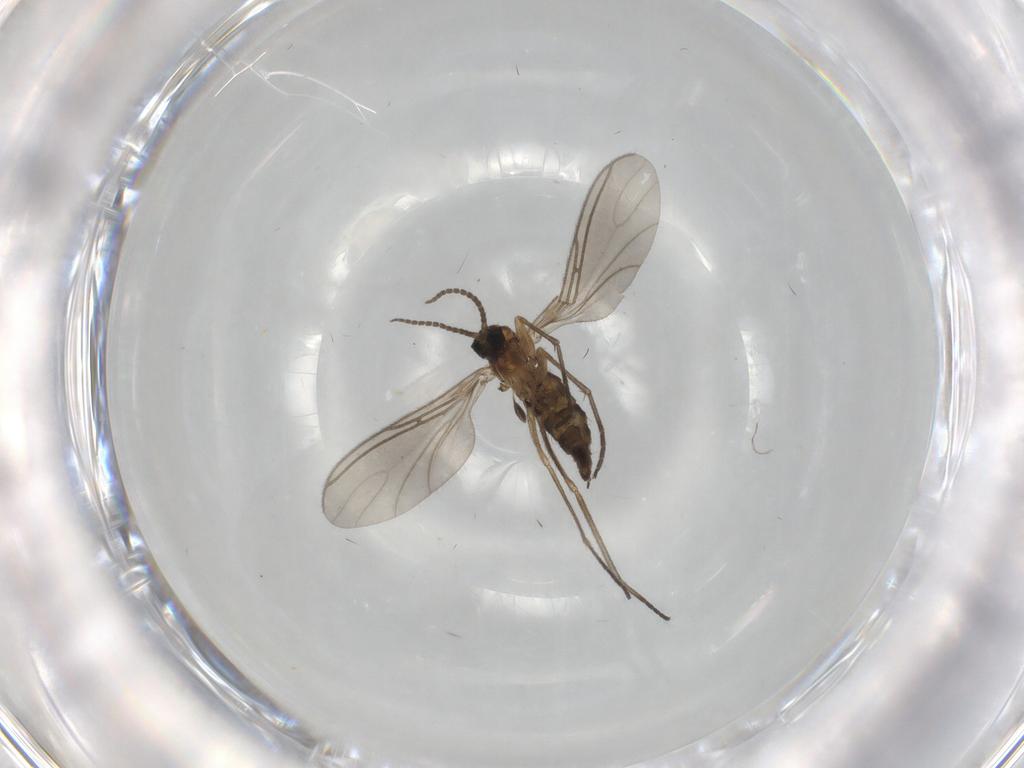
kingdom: Animalia
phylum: Arthropoda
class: Insecta
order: Diptera
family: Sciaridae
